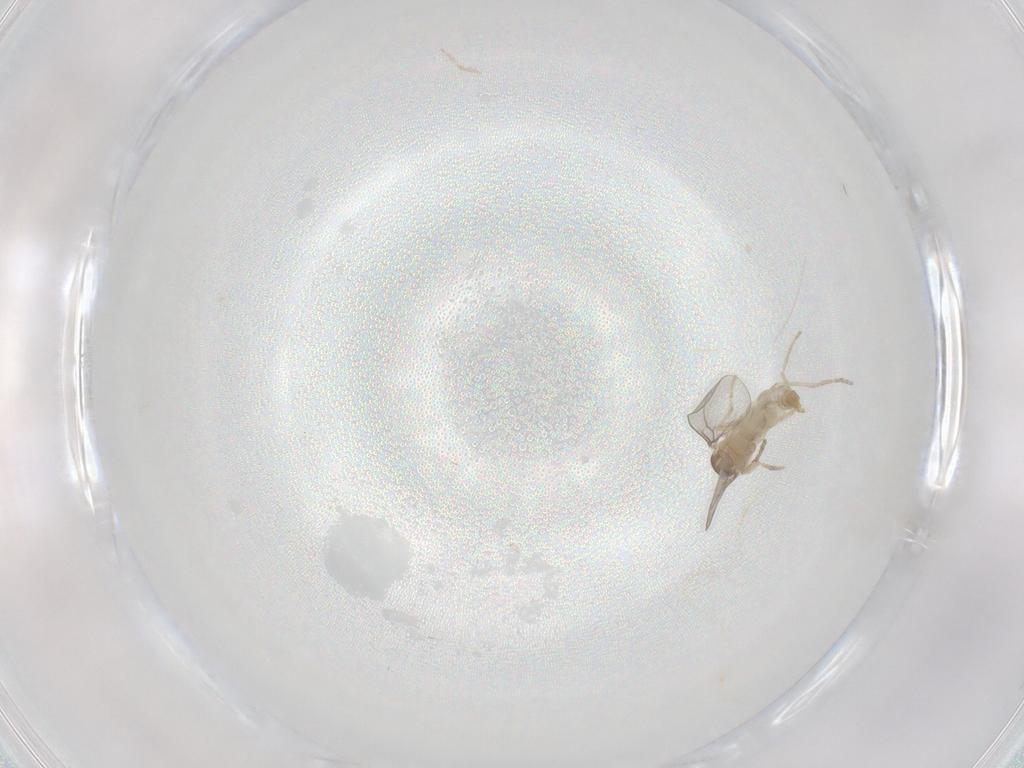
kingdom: Animalia
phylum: Arthropoda
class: Insecta
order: Diptera
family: Cecidomyiidae
